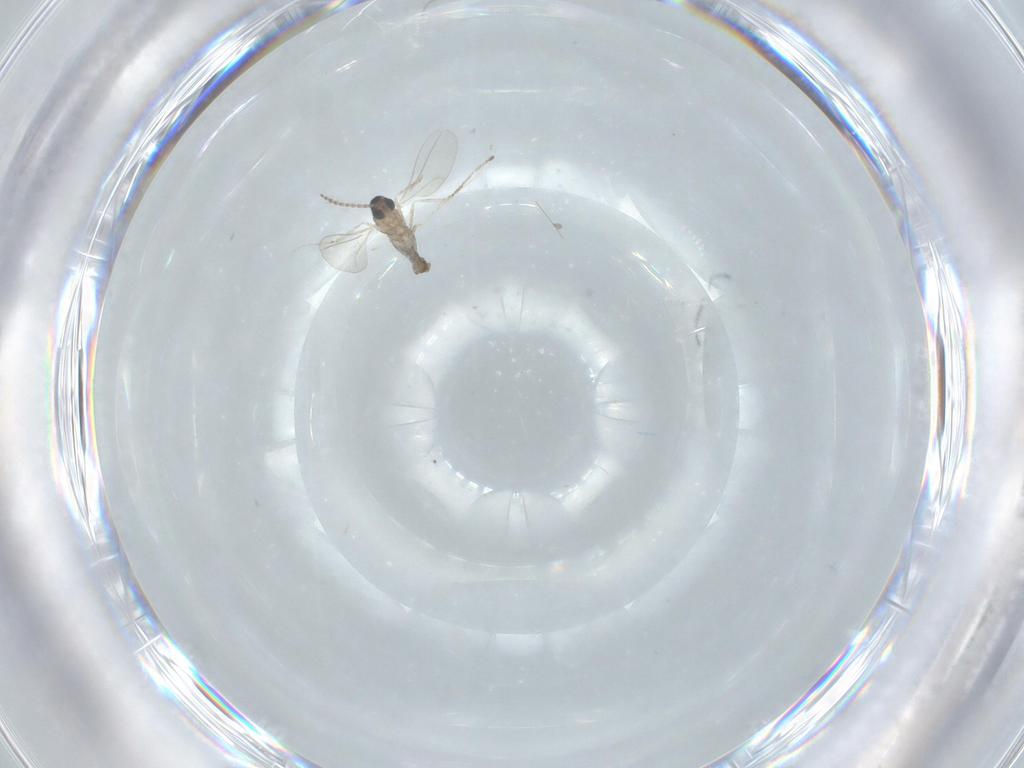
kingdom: Animalia
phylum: Arthropoda
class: Insecta
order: Diptera
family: Cecidomyiidae
